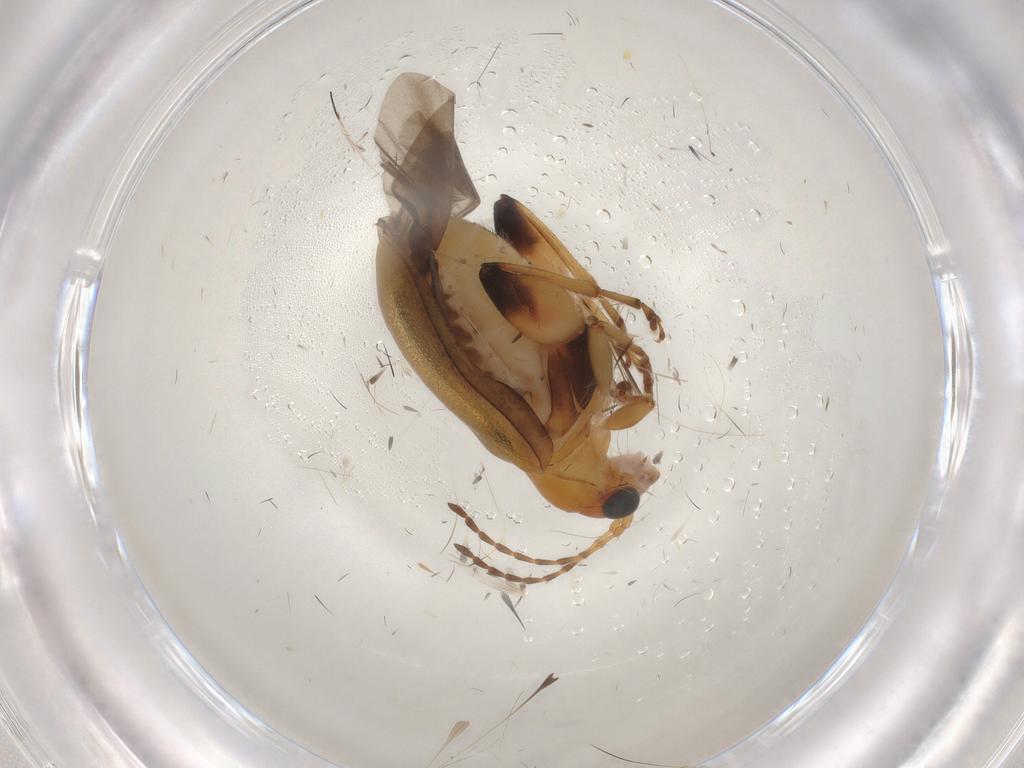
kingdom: Animalia
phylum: Arthropoda
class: Insecta
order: Coleoptera
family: Chrysomelidae
